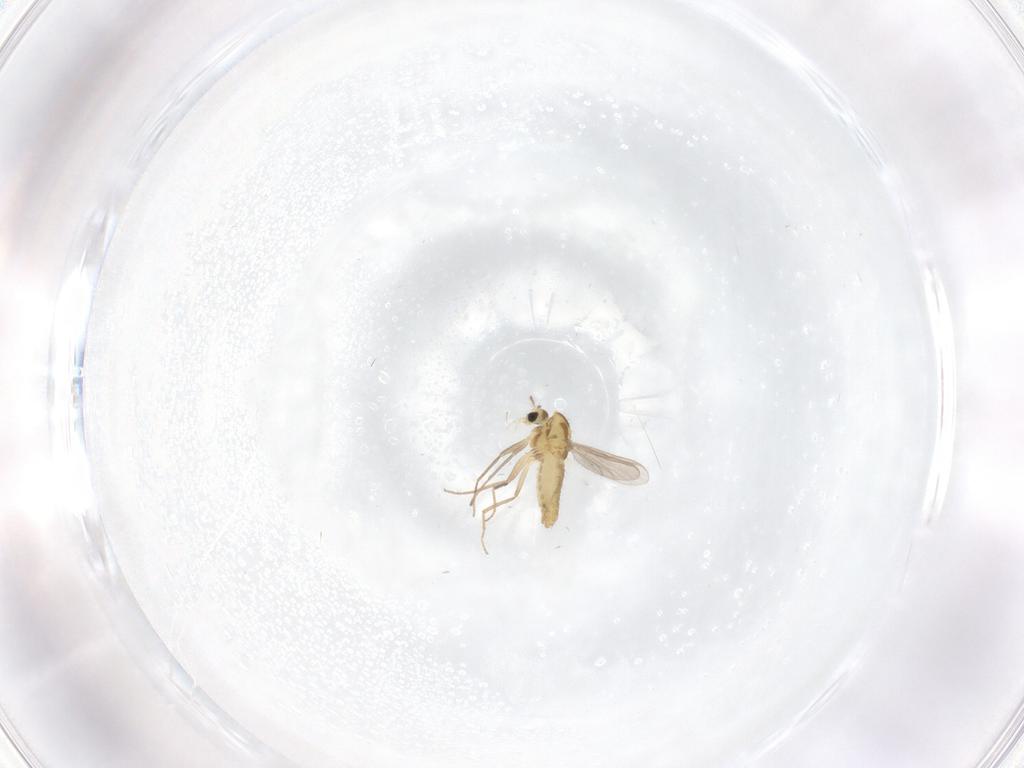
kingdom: Animalia
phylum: Arthropoda
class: Insecta
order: Diptera
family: Chironomidae
